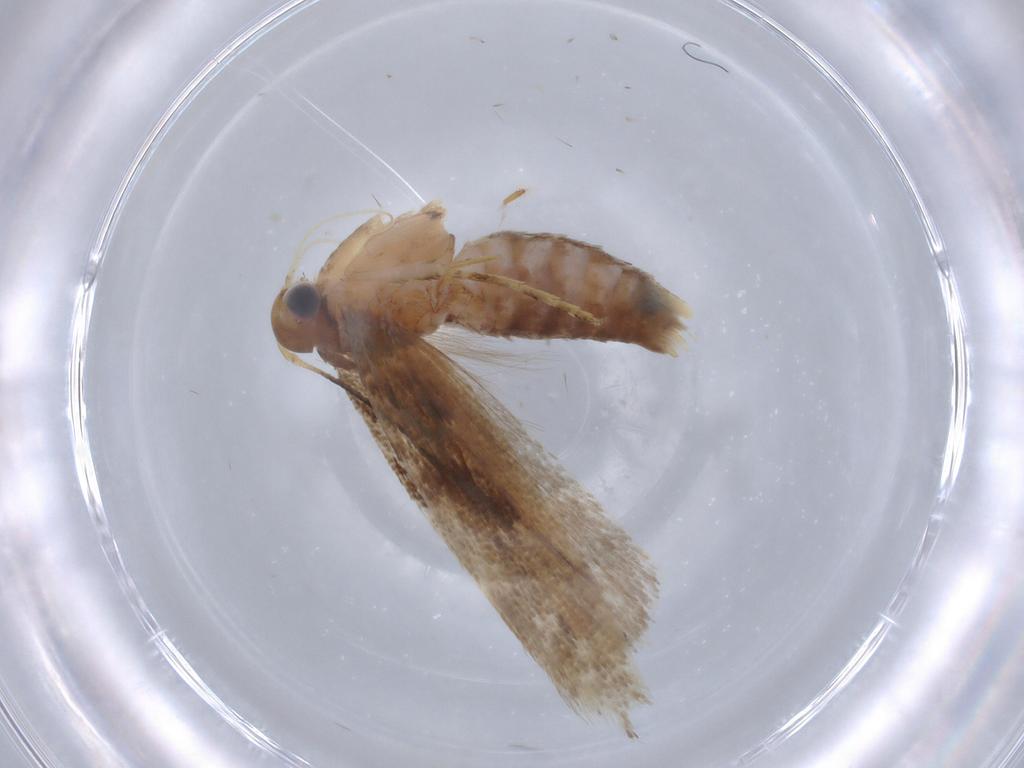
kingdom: Animalia
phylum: Arthropoda
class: Insecta
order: Lepidoptera
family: Gelechiidae
